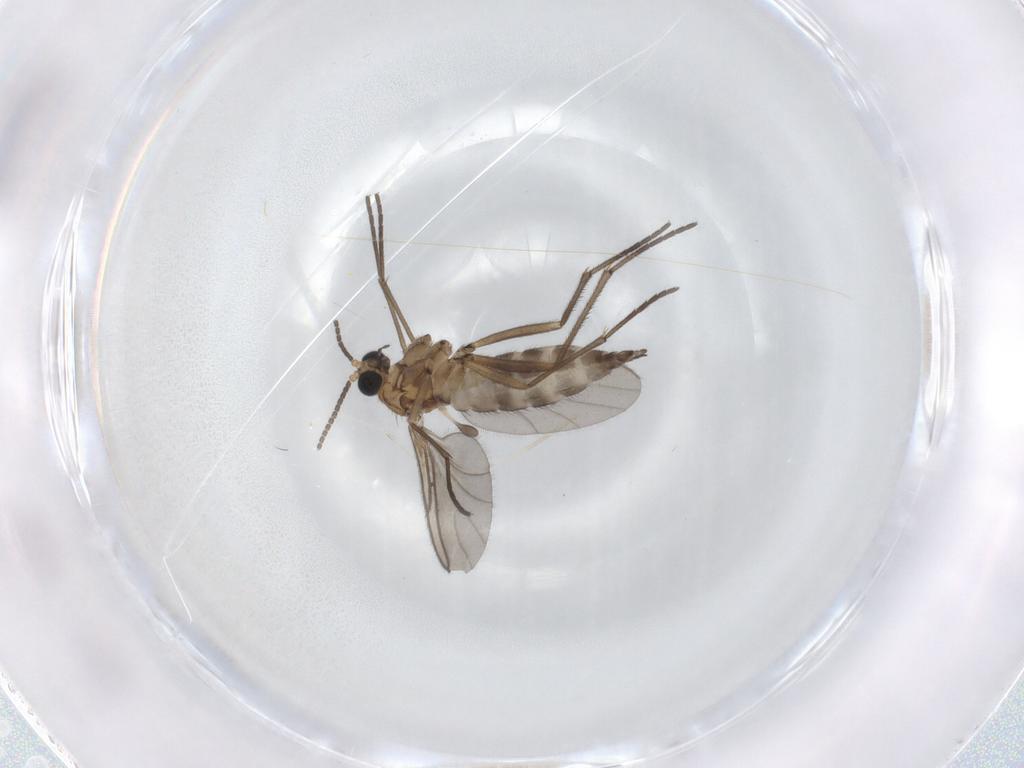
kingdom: Animalia
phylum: Arthropoda
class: Insecta
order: Diptera
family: Sciaridae
